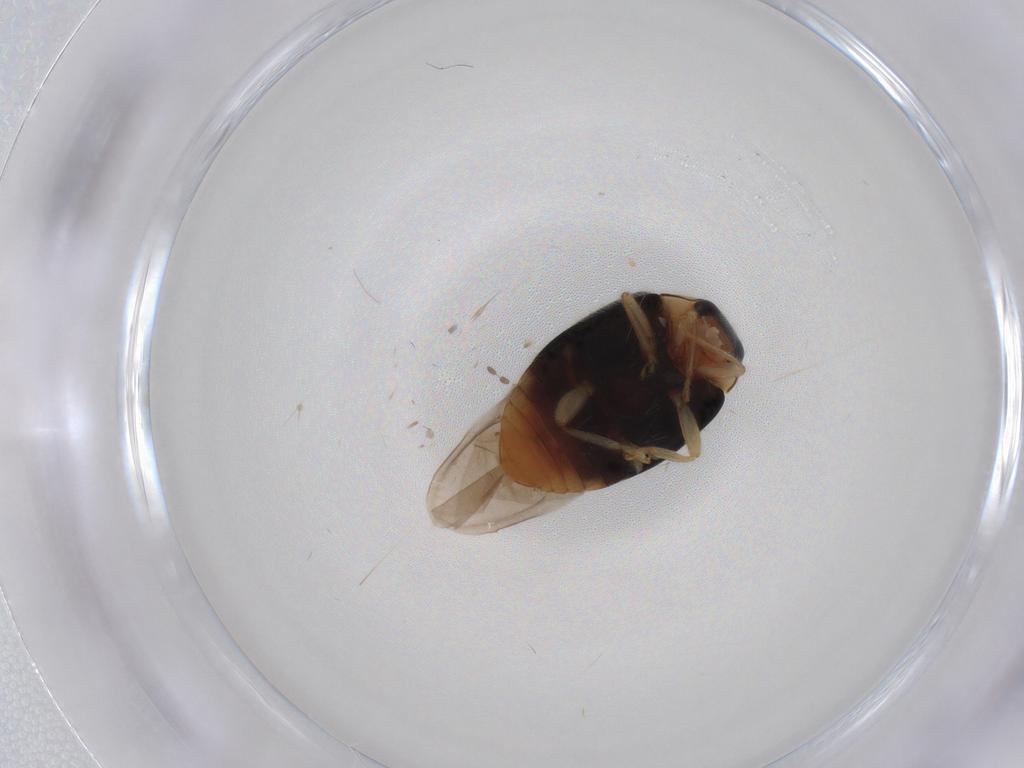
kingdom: Animalia
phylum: Arthropoda
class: Insecta
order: Coleoptera
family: Coccinellidae
